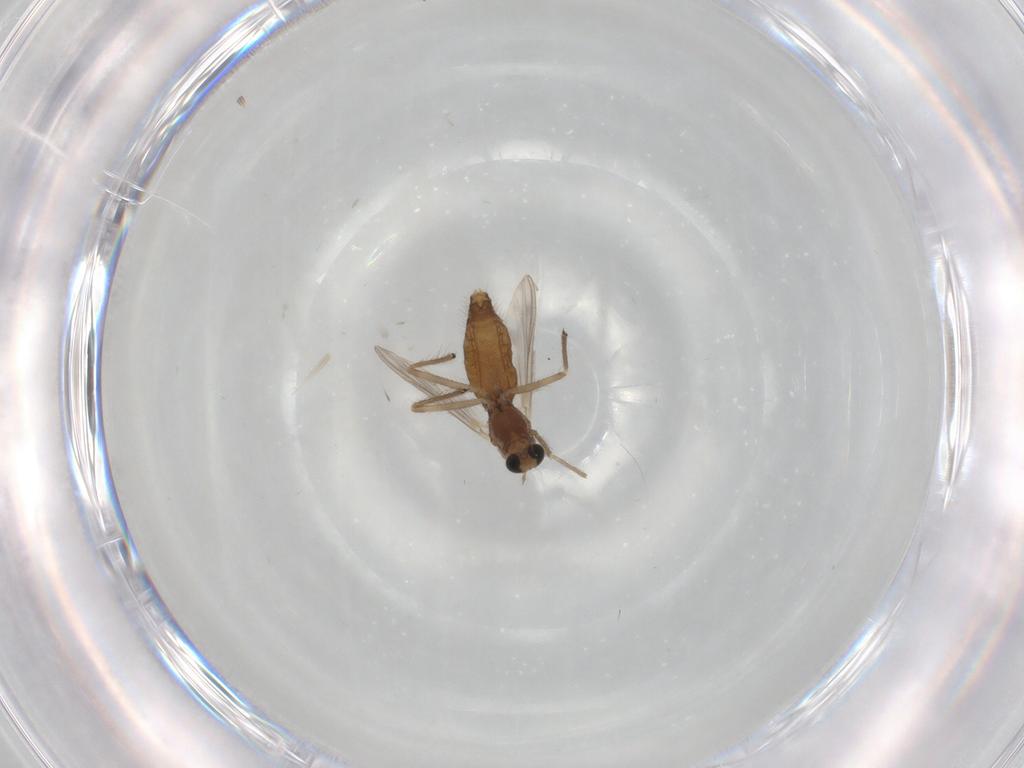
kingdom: Animalia
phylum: Arthropoda
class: Insecta
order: Diptera
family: Chironomidae
